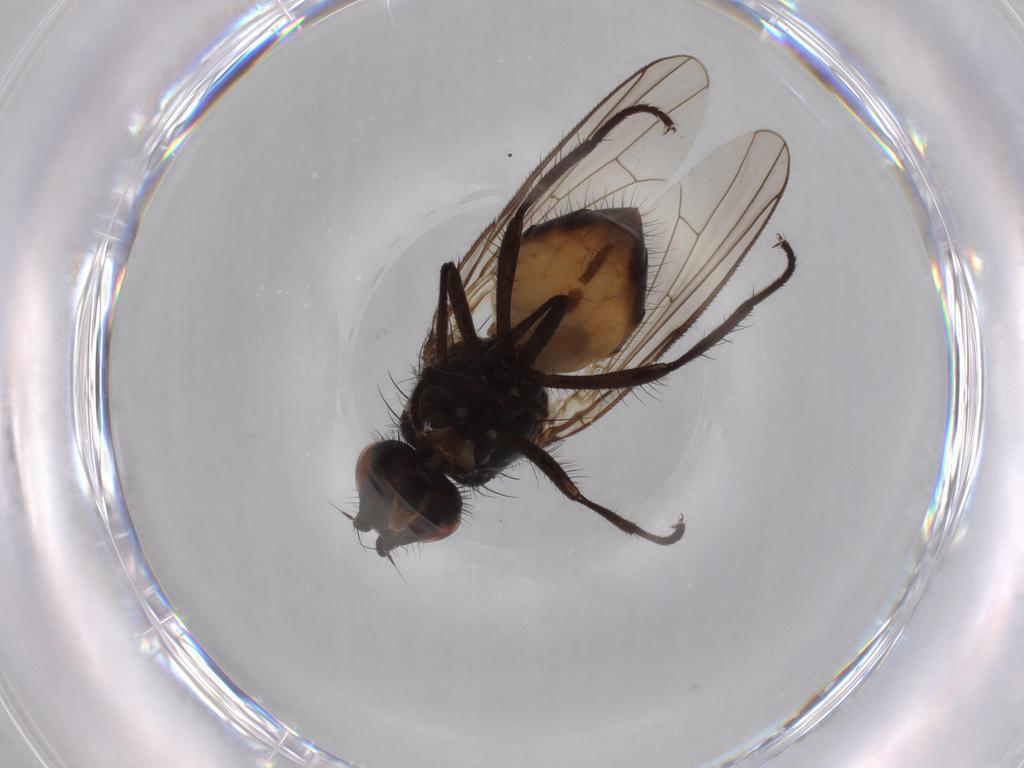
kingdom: Animalia
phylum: Arthropoda
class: Insecta
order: Diptera
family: Anthomyiidae
